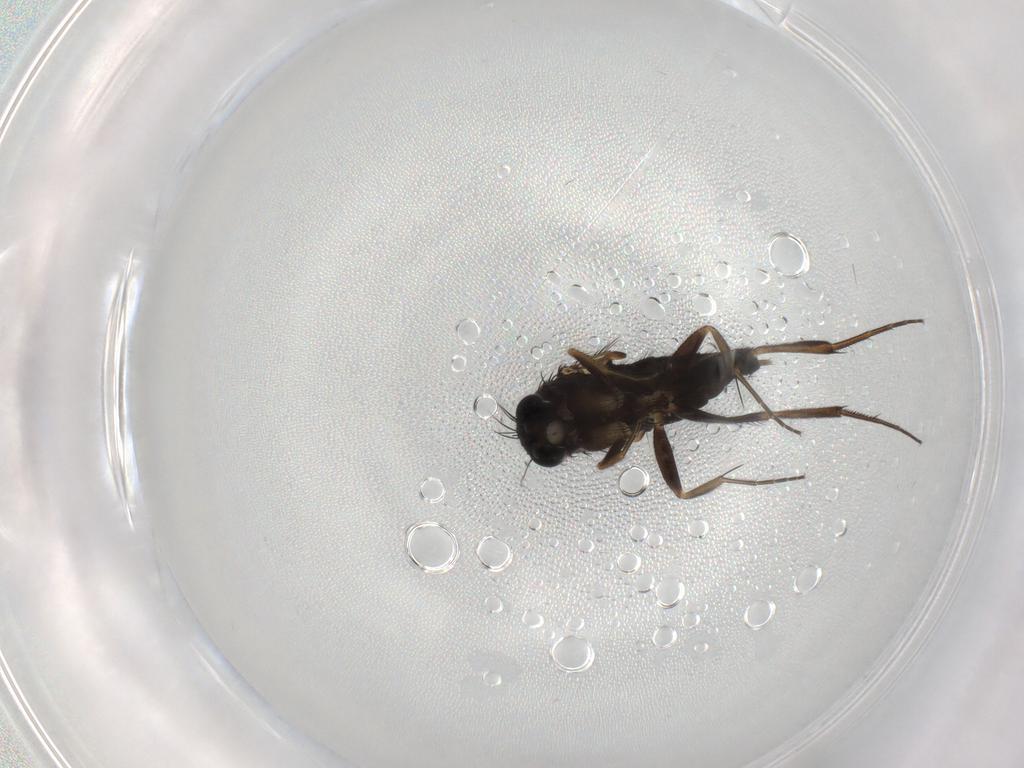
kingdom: Animalia
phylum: Arthropoda
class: Insecta
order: Diptera
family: Phoridae
